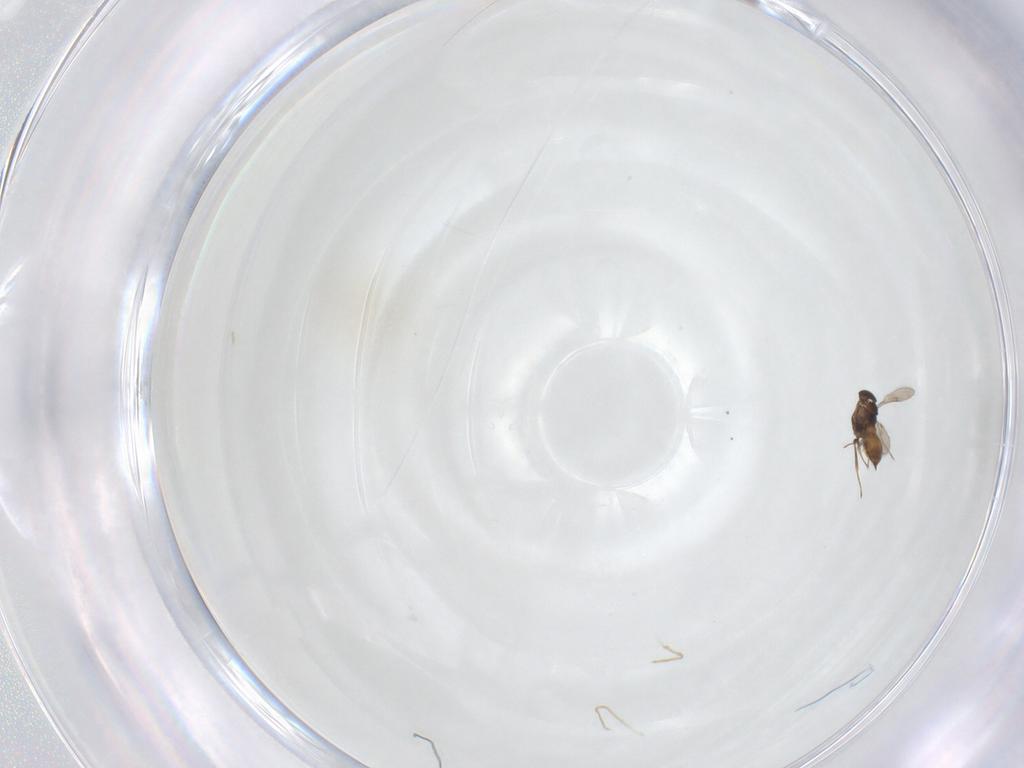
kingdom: Animalia
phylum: Arthropoda
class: Insecta
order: Hymenoptera
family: Scelionidae
